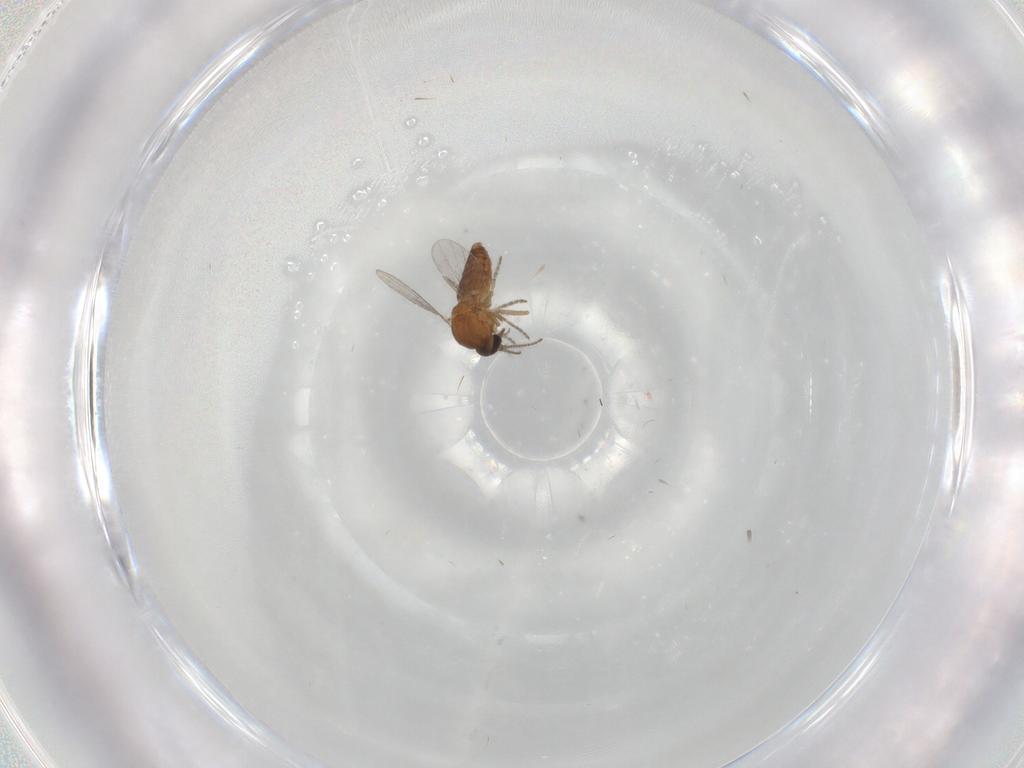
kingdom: Animalia
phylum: Arthropoda
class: Insecta
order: Diptera
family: Ceratopogonidae
